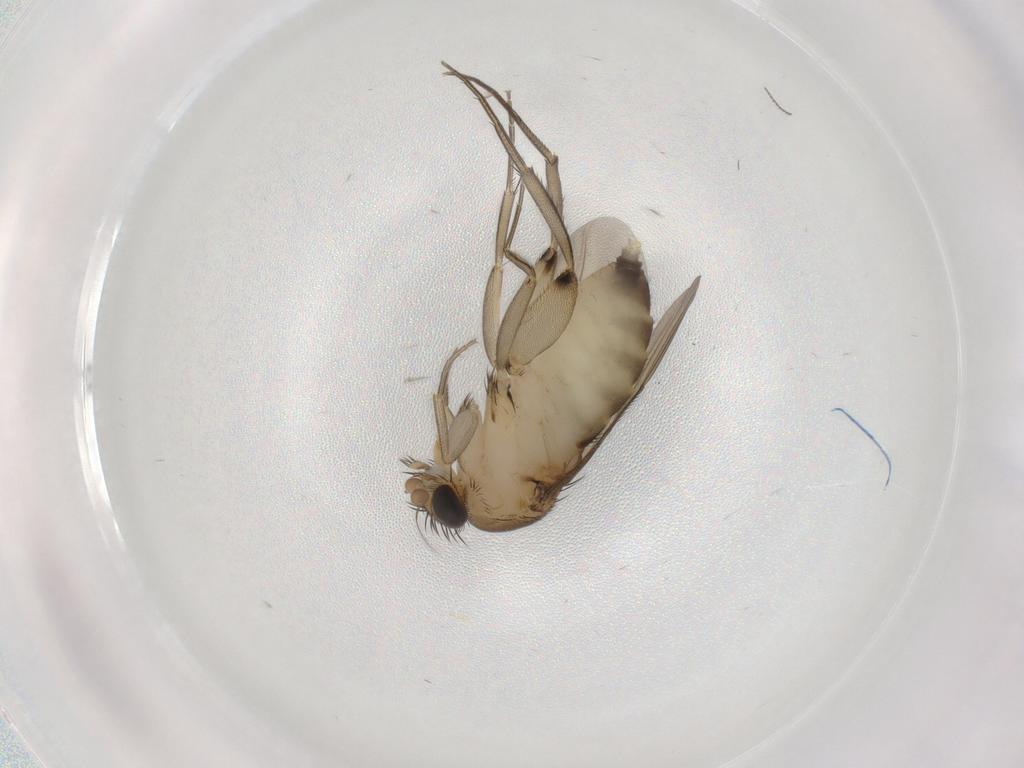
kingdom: Animalia
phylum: Arthropoda
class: Insecta
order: Diptera
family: Phoridae
